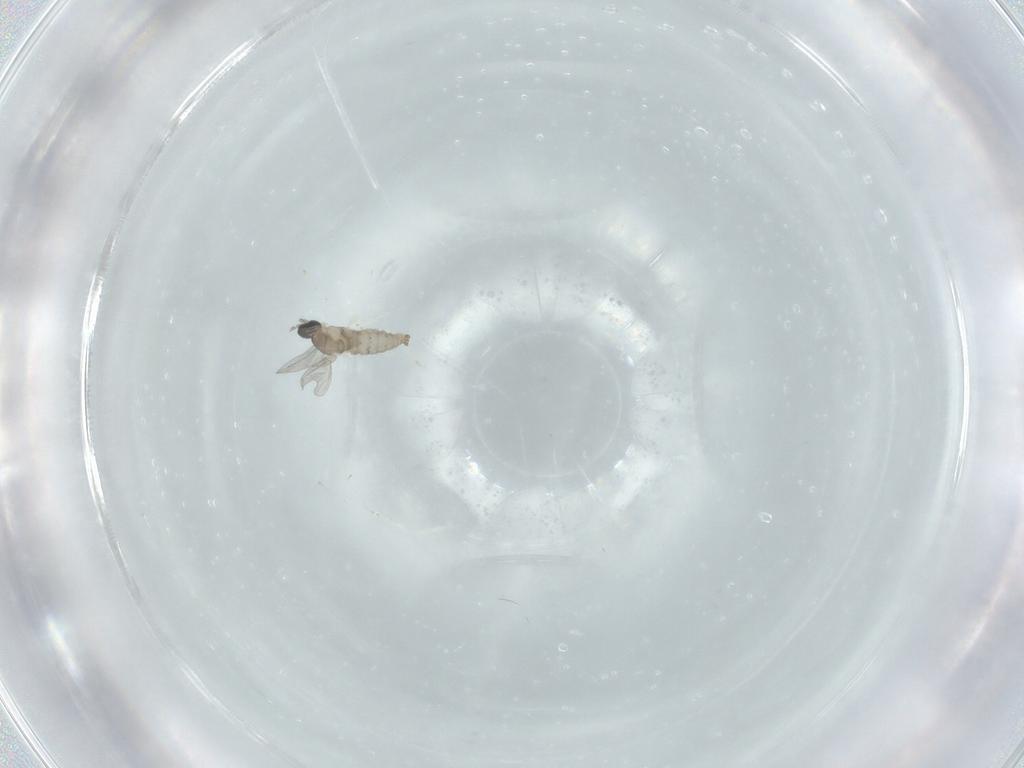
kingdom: Animalia
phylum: Arthropoda
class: Insecta
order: Diptera
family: Cecidomyiidae
